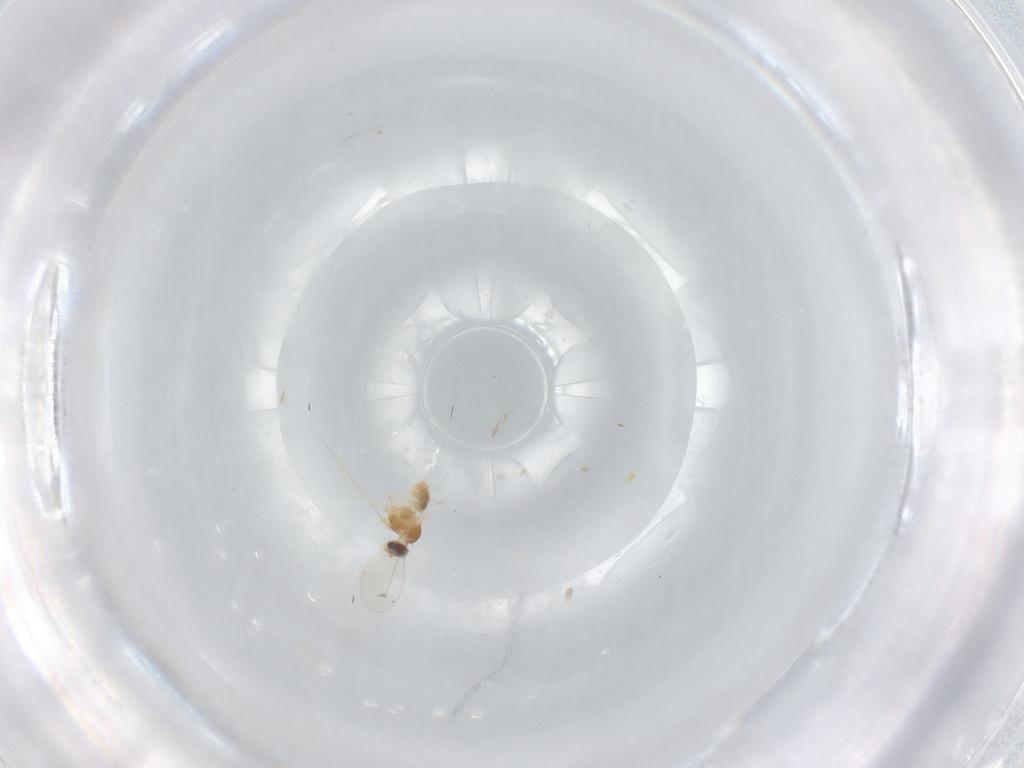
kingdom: Animalia
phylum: Arthropoda
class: Insecta
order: Diptera
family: Cecidomyiidae
